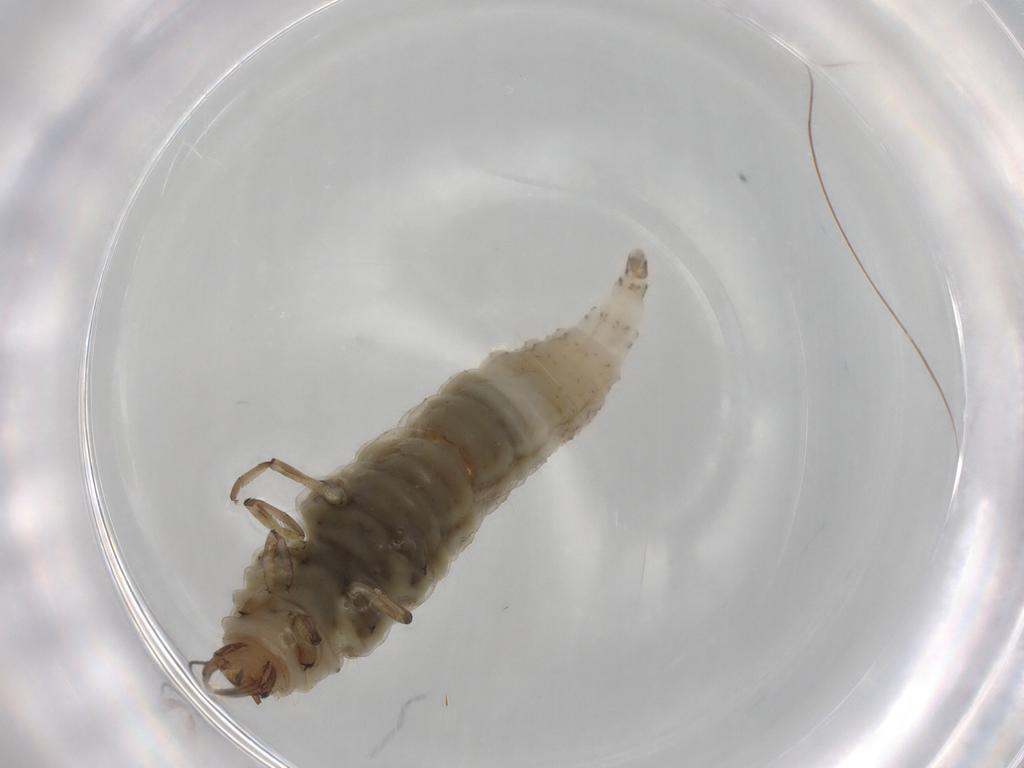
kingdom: Animalia
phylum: Arthropoda
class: Insecta
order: Neuroptera
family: Hemerobiidae
